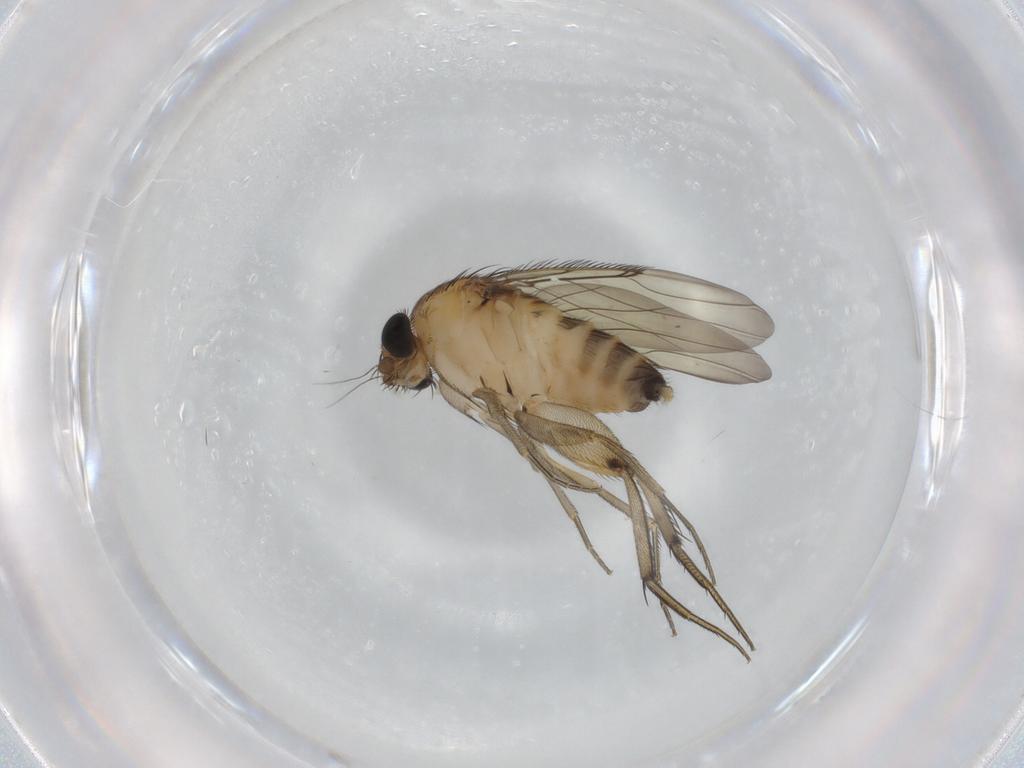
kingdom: Animalia
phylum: Arthropoda
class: Insecta
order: Diptera
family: Phoridae
